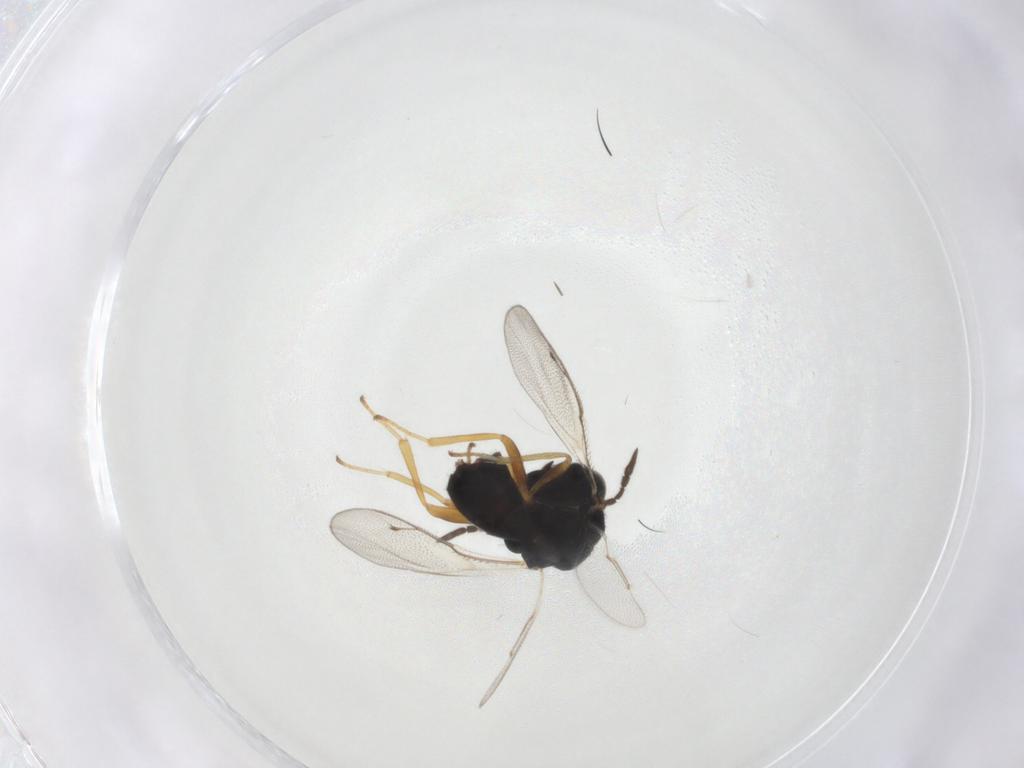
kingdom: Animalia
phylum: Arthropoda
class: Insecta
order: Hymenoptera
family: Pteromalidae
